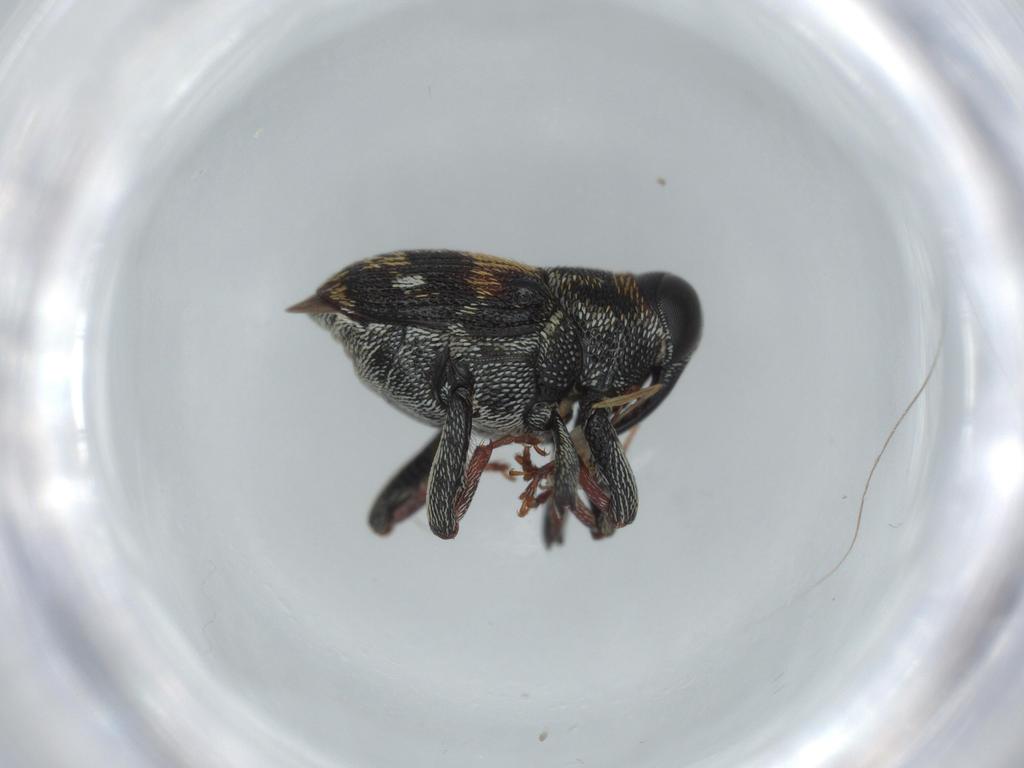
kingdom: Animalia
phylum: Arthropoda
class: Insecta
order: Coleoptera
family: Curculionidae
